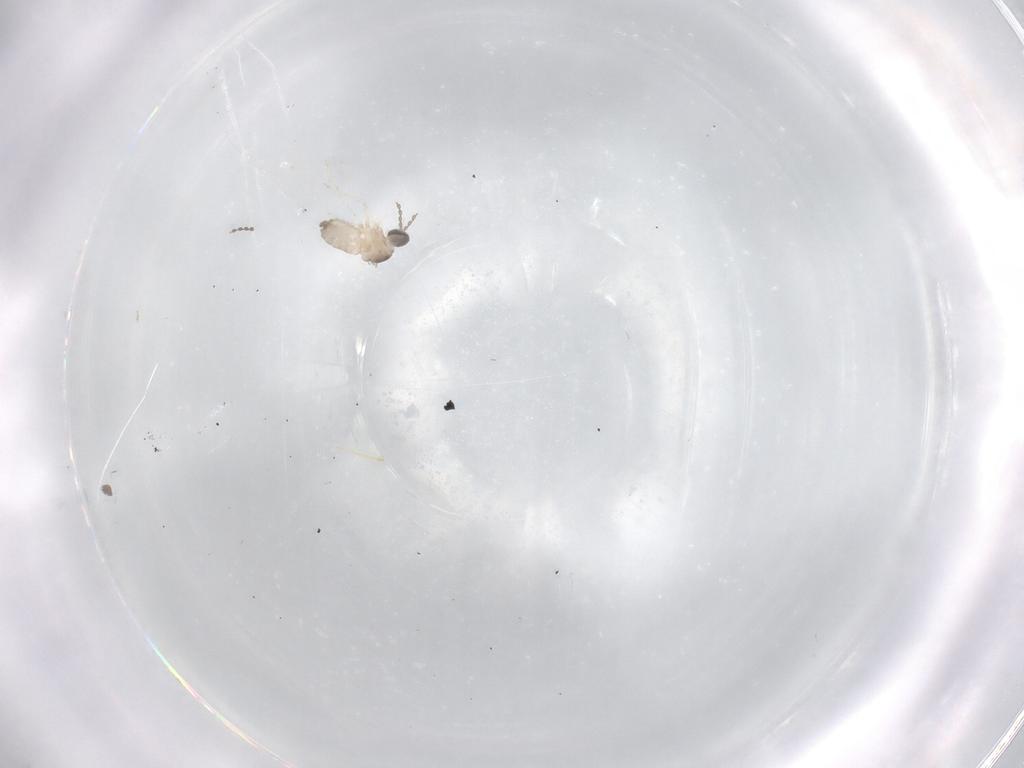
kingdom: Animalia
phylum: Arthropoda
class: Insecta
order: Diptera
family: Cecidomyiidae
